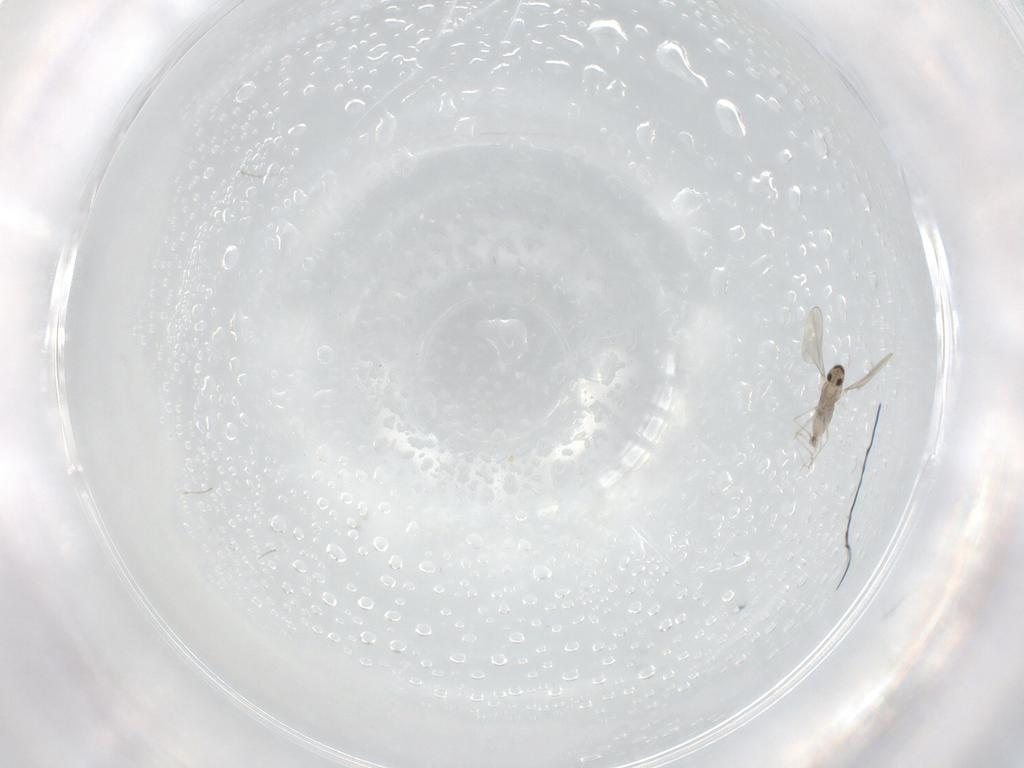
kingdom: Animalia
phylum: Arthropoda
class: Insecta
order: Diptera
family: Cecidomyiidae
